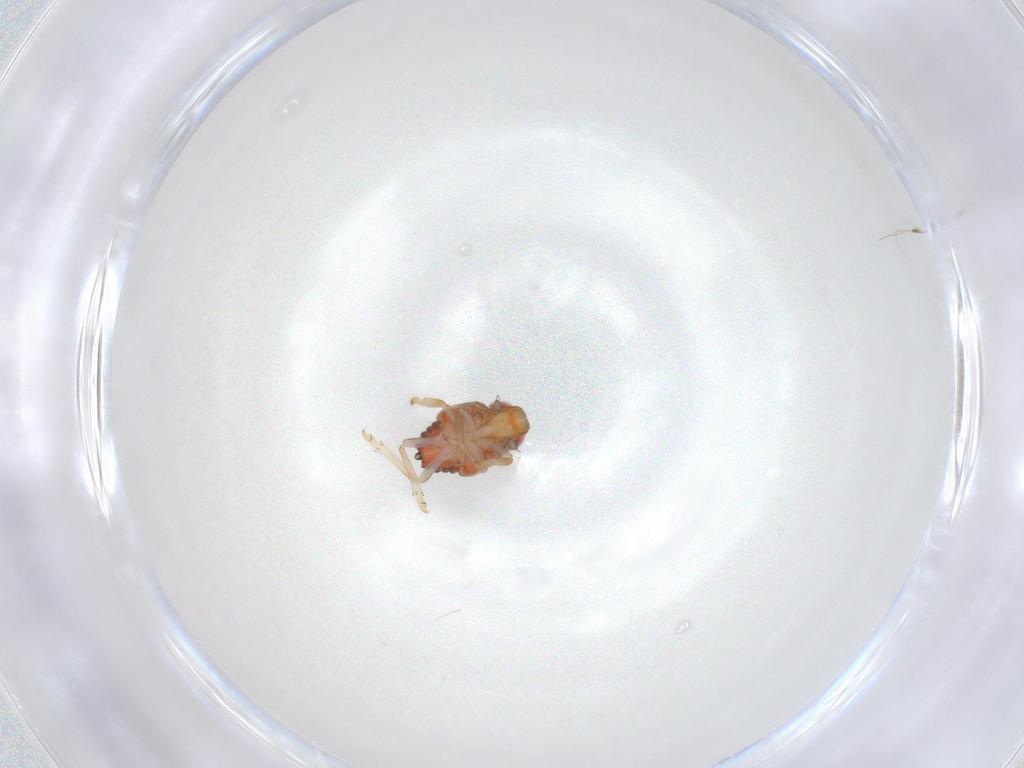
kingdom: Animalia
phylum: Arthropoda
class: Insecta
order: Hemiptera
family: Issidae
